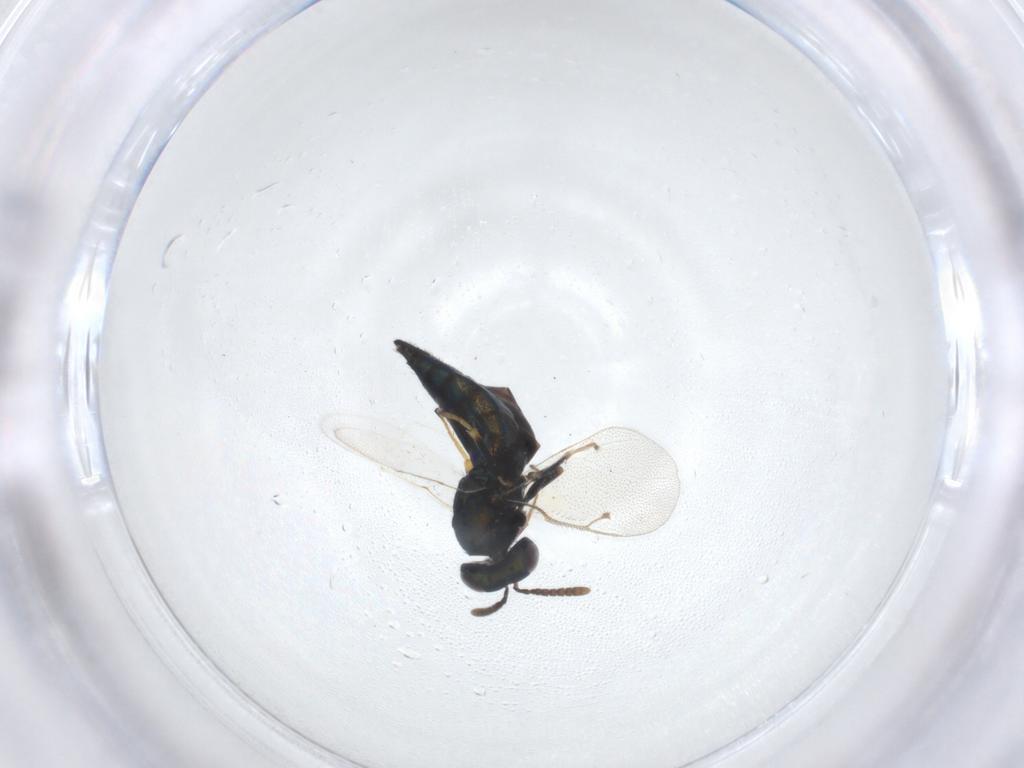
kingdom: Animalia
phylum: Arthropoda
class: Insecta
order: Hymenoptera
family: Pteromalidae
